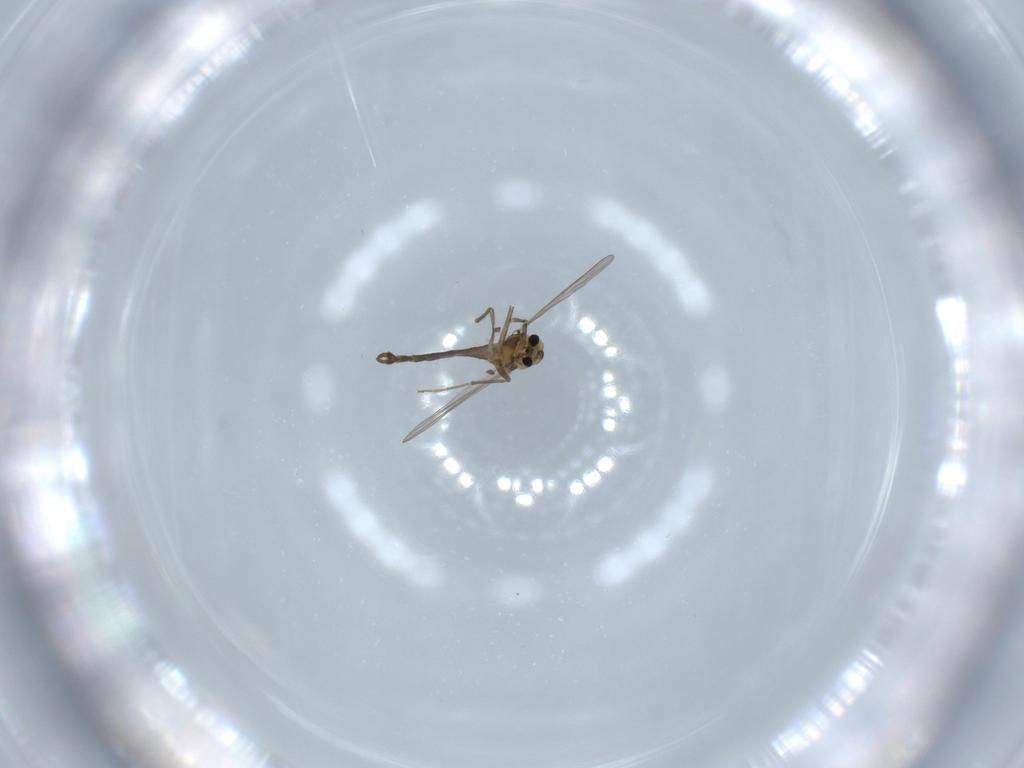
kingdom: Animalia
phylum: Arthropoda
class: Insecta
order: Diptera
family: Chironomidae
